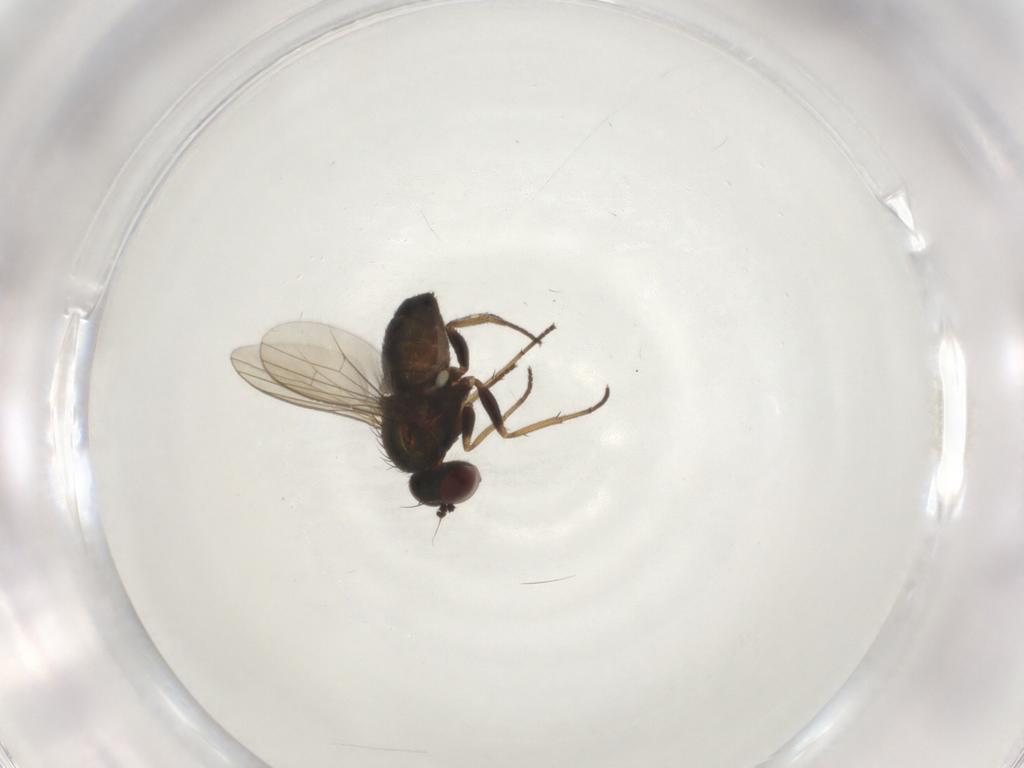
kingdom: Animalia
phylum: Arthropoda
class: Insecta
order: Diptera
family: Dolichopodidae
